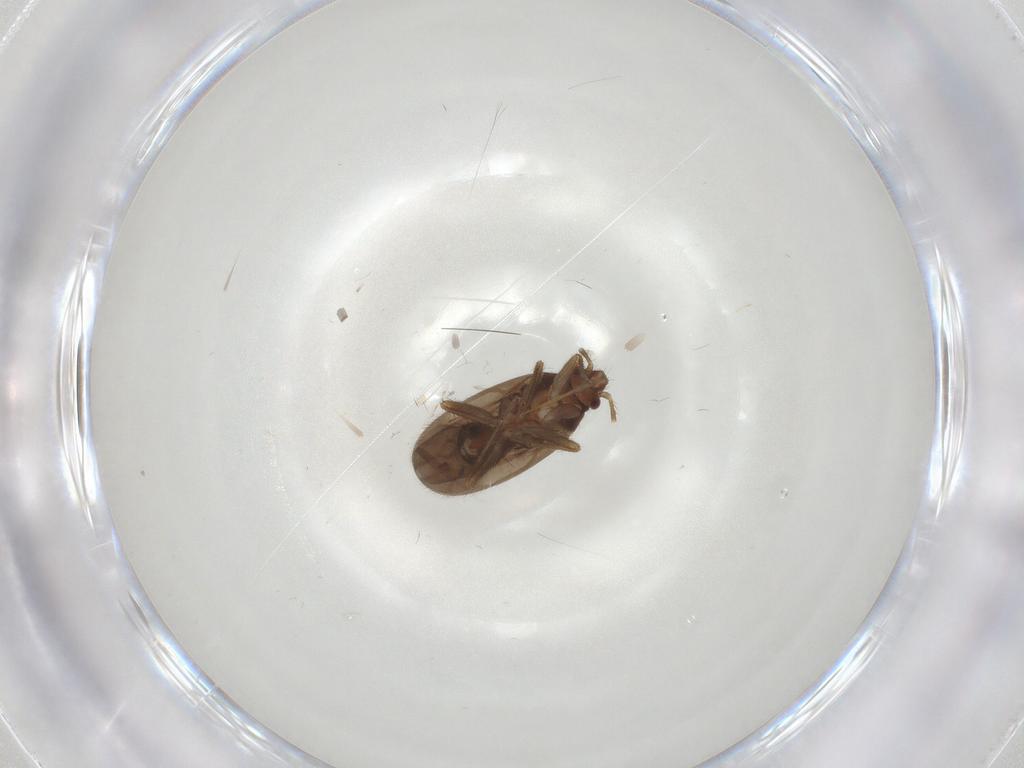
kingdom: Animalia
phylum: Arthropoda
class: Insecta
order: Hemiptera
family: Ceratocombidae
